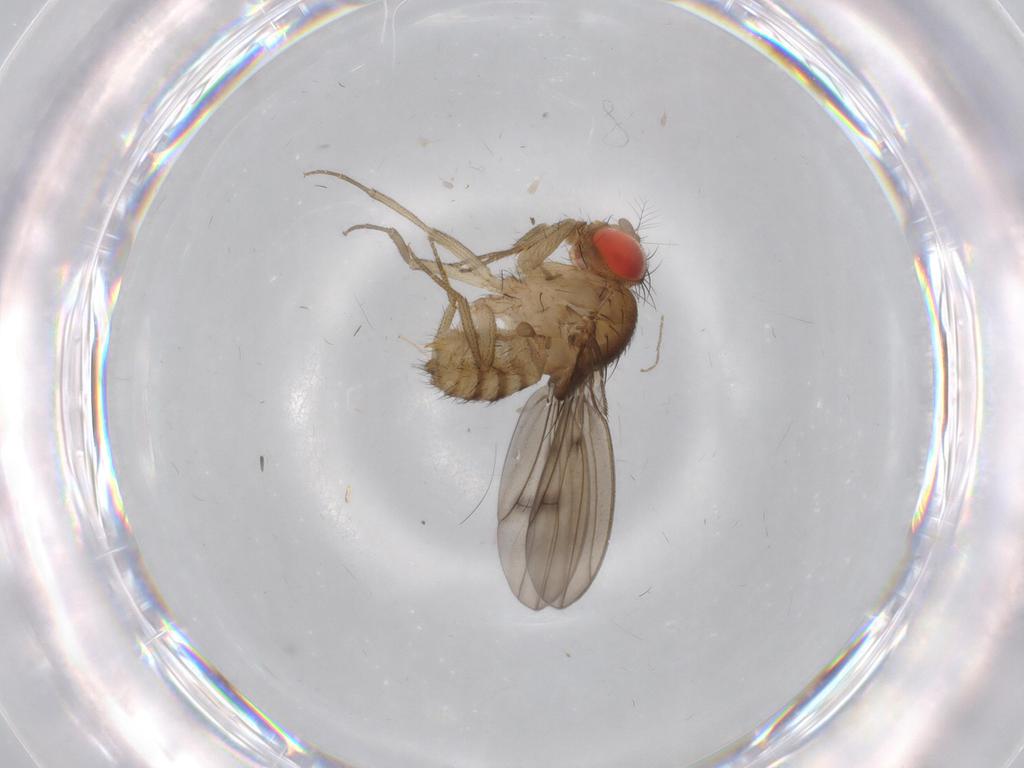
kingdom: Animalia
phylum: Arthropoda
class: Insecta
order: Diptera
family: Chironomidae
